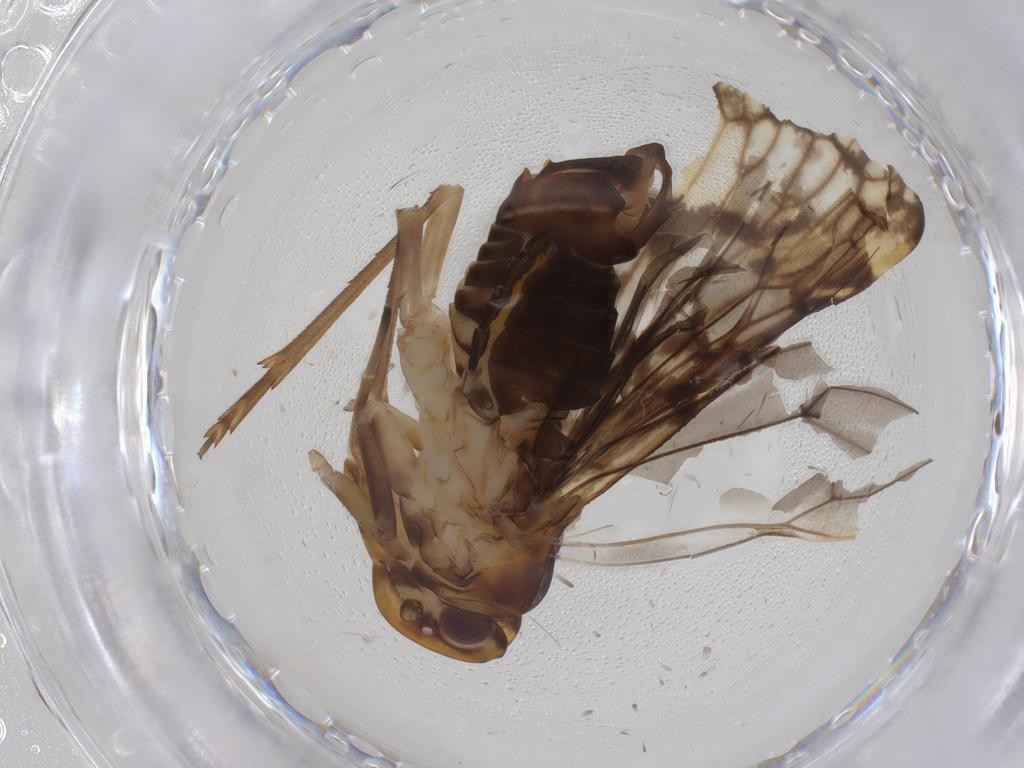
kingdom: Animalia
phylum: Arthropoda
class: Insecta
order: Hemiptera
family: Cixiidae
